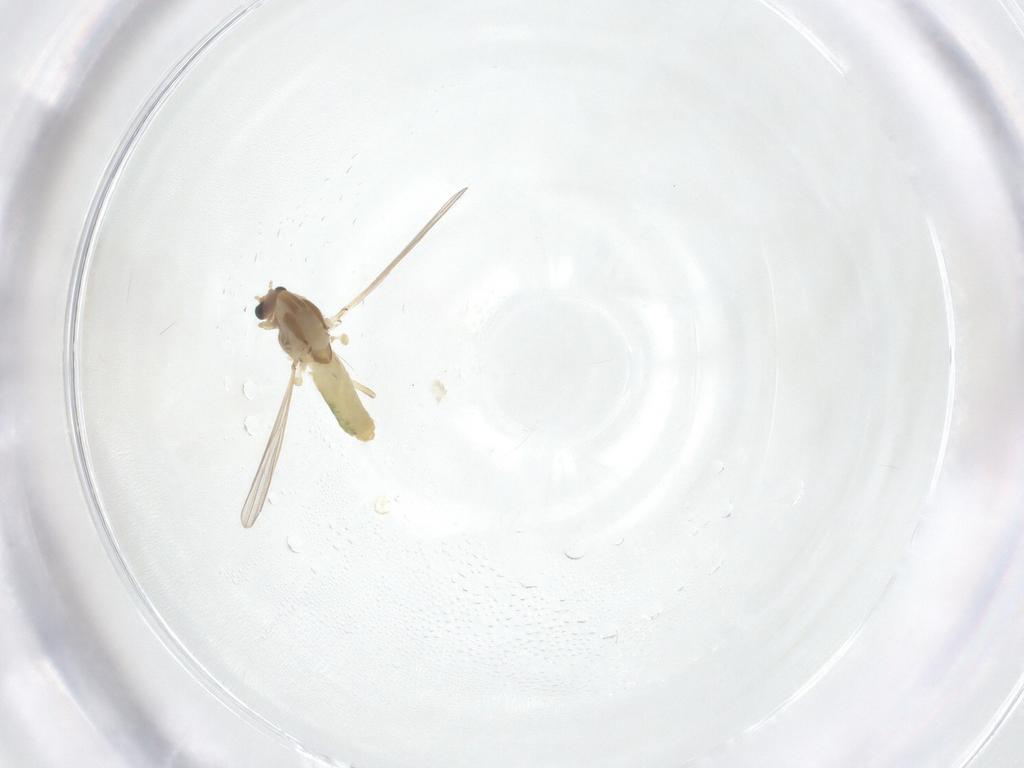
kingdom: Animalia
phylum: Arthropoda
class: Insecta
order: Diptera
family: Chironomidae
